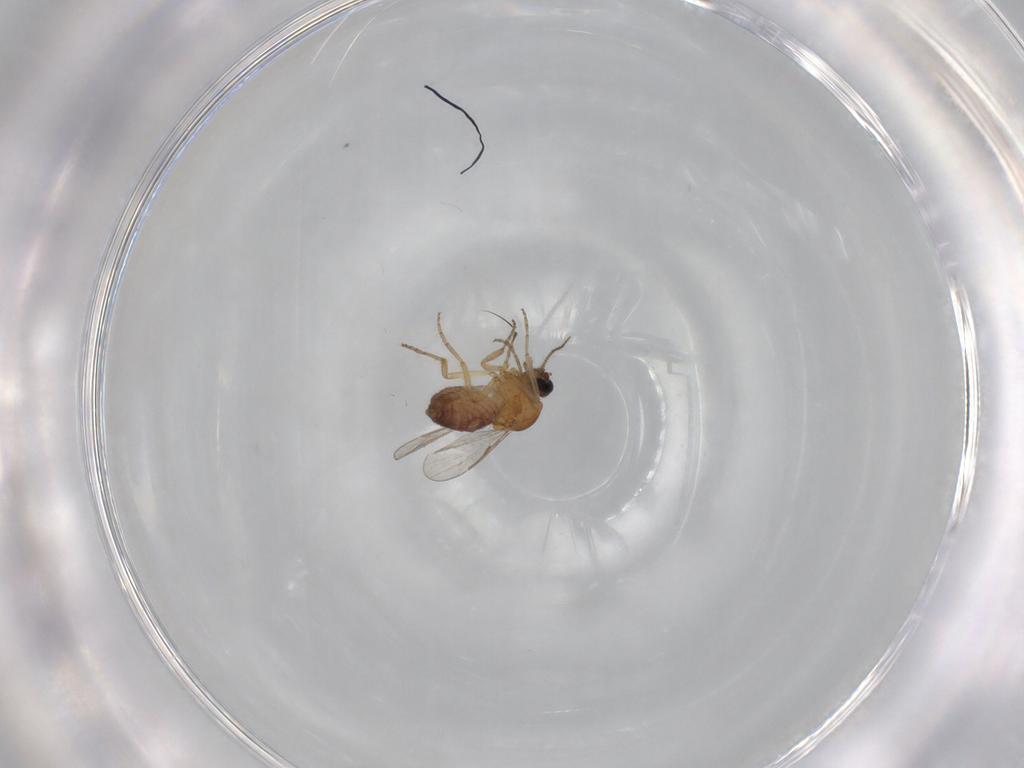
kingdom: Animalia
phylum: Arthropoda
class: Insecta
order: Diptera
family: Ceratopogonidae
